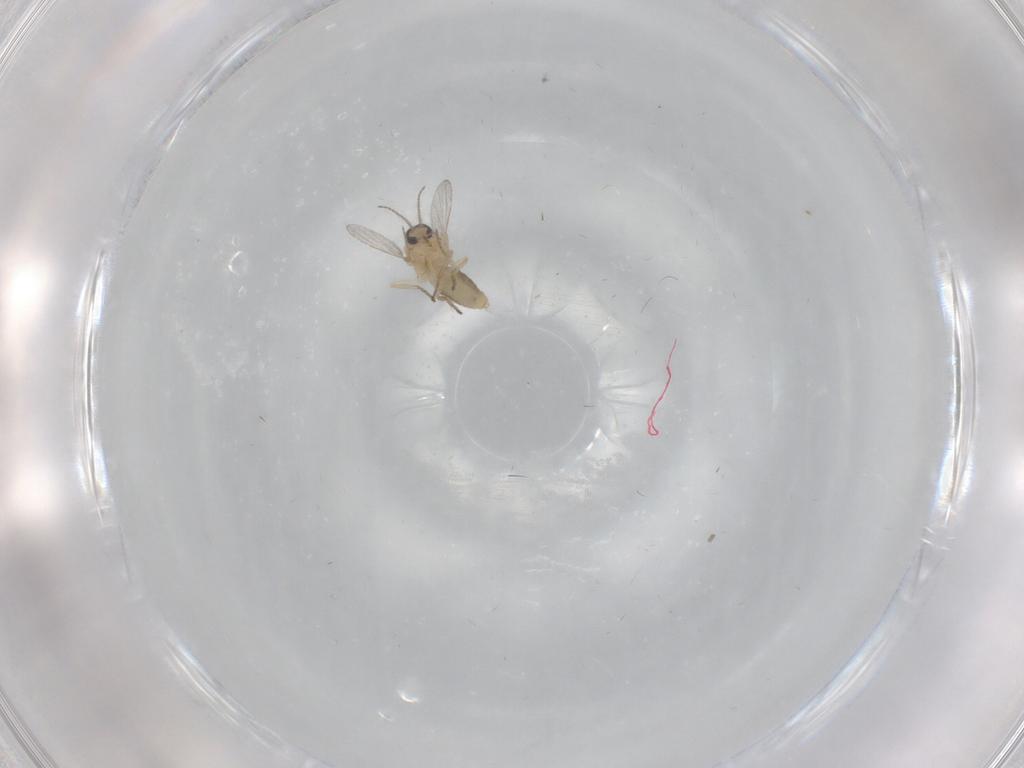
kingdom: Animalia
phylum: Arthropoda
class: Insecta
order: Diptera
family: Ceratopogonidae
